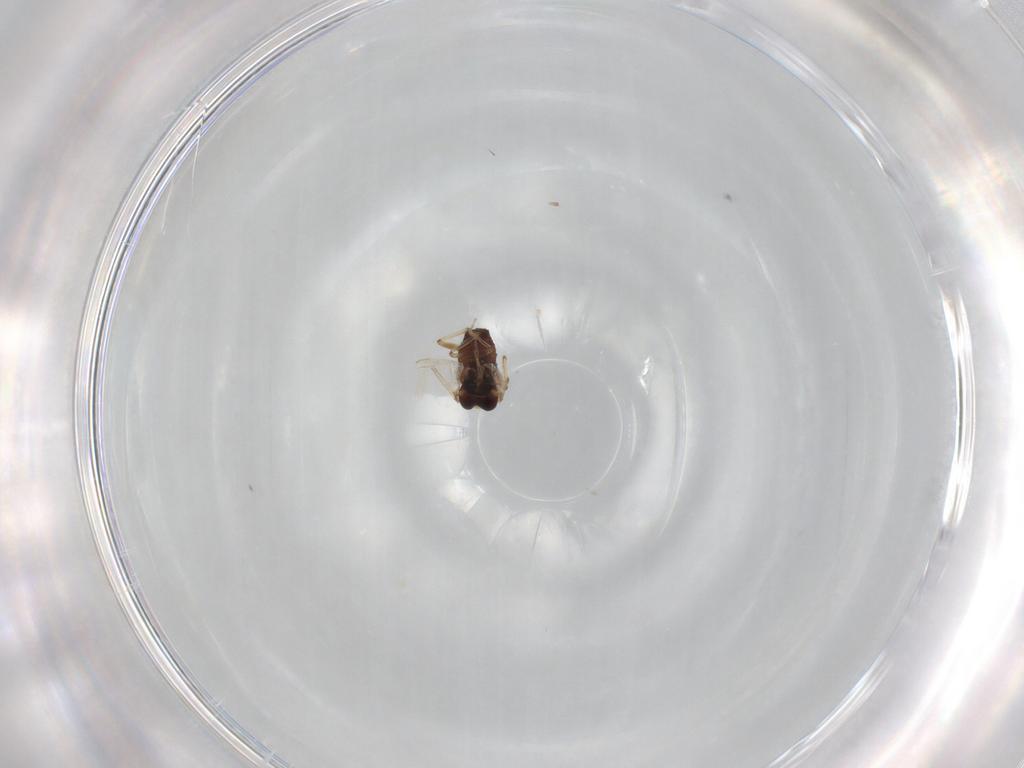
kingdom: Animalia
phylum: Arthropoda
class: Insecta
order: Diptera
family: Ceratopogonidae
